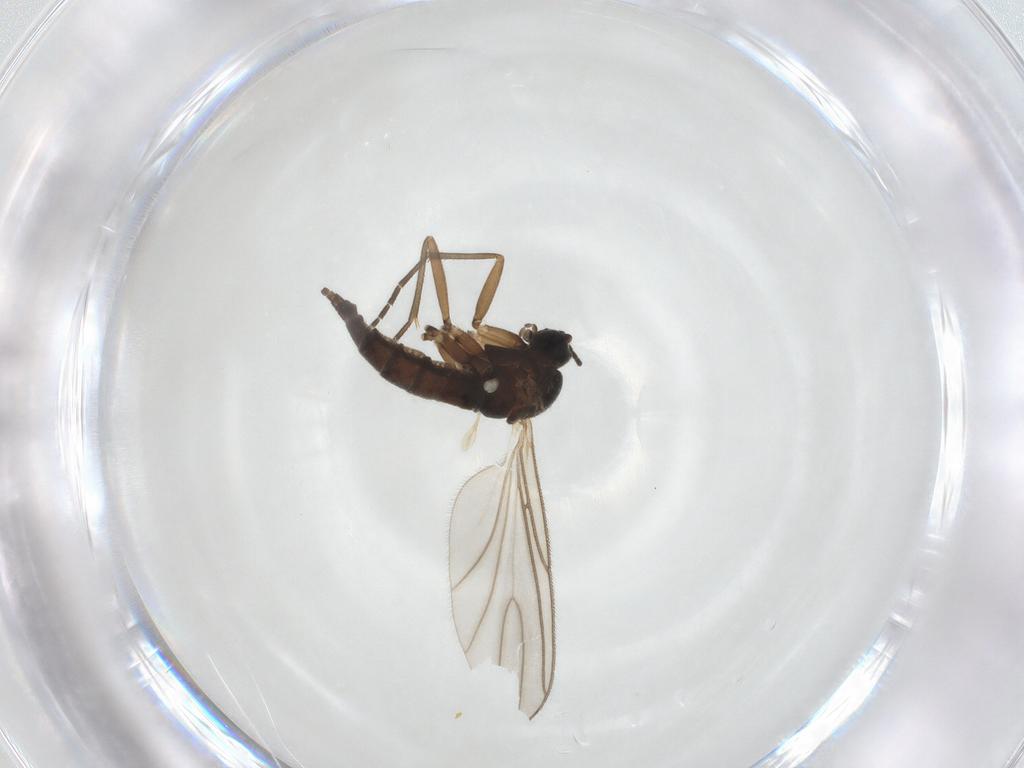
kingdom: Animalia
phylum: Arthropoda
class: Insecta
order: Diptera
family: Sciaridae
